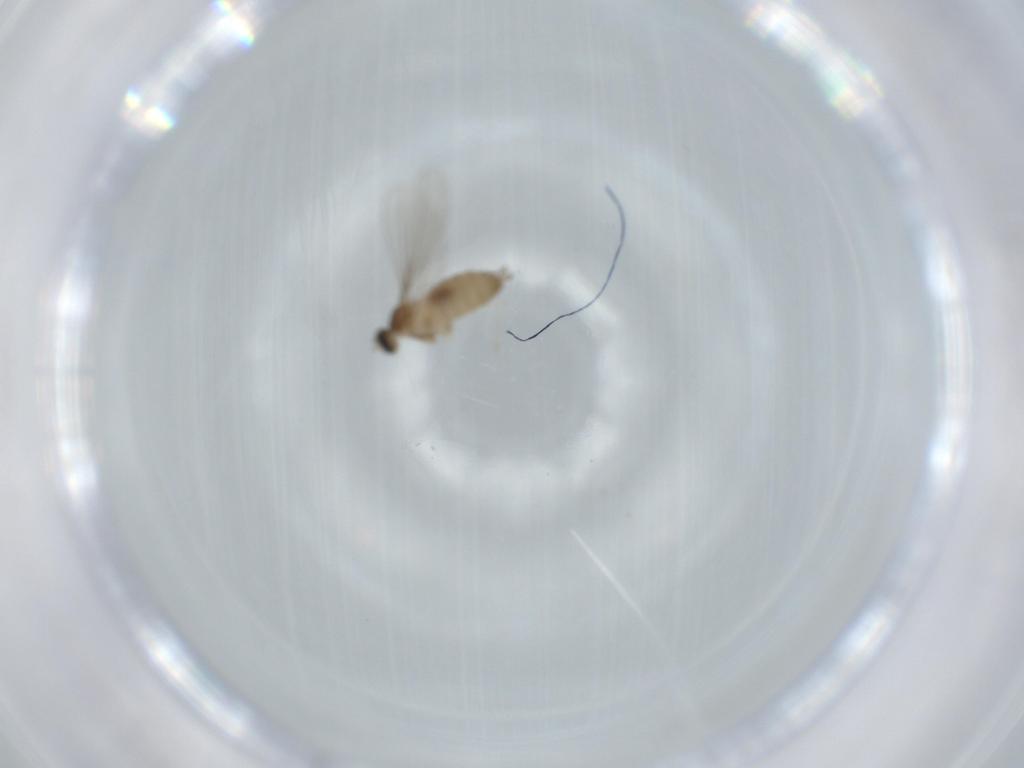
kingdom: Animalia
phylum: Arthropoda
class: Insecta
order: Diptera
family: Cecidomyiidae
